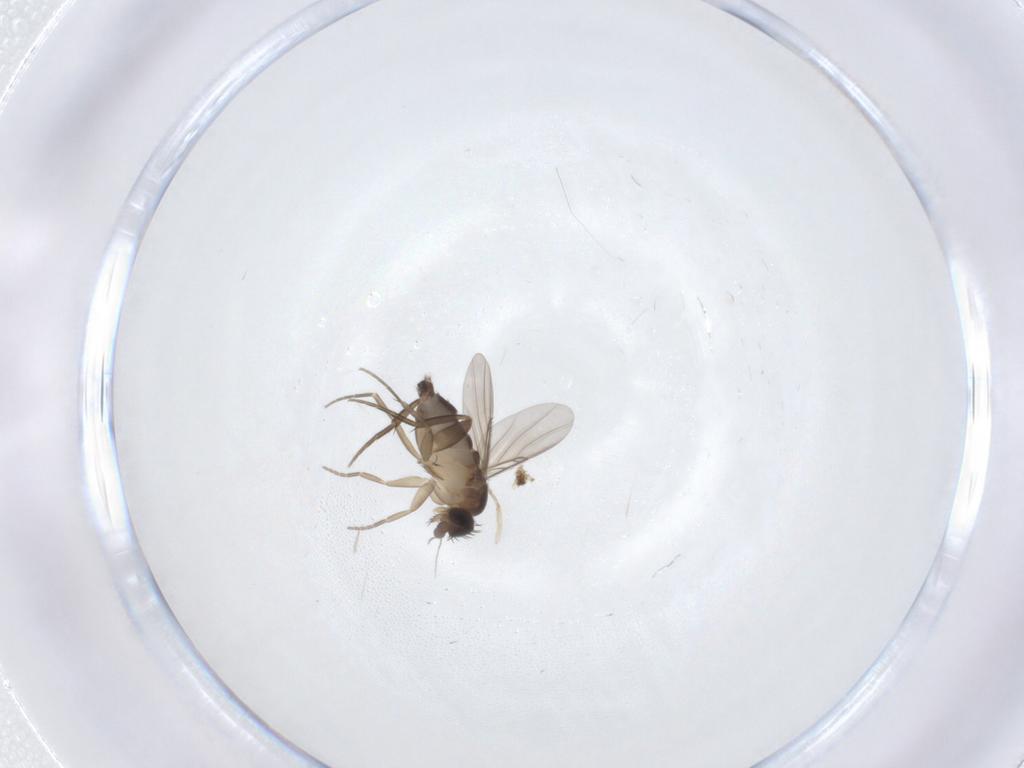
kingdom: Animalia
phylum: Arthropoda
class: Insecta
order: Diptera
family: Phoridae
